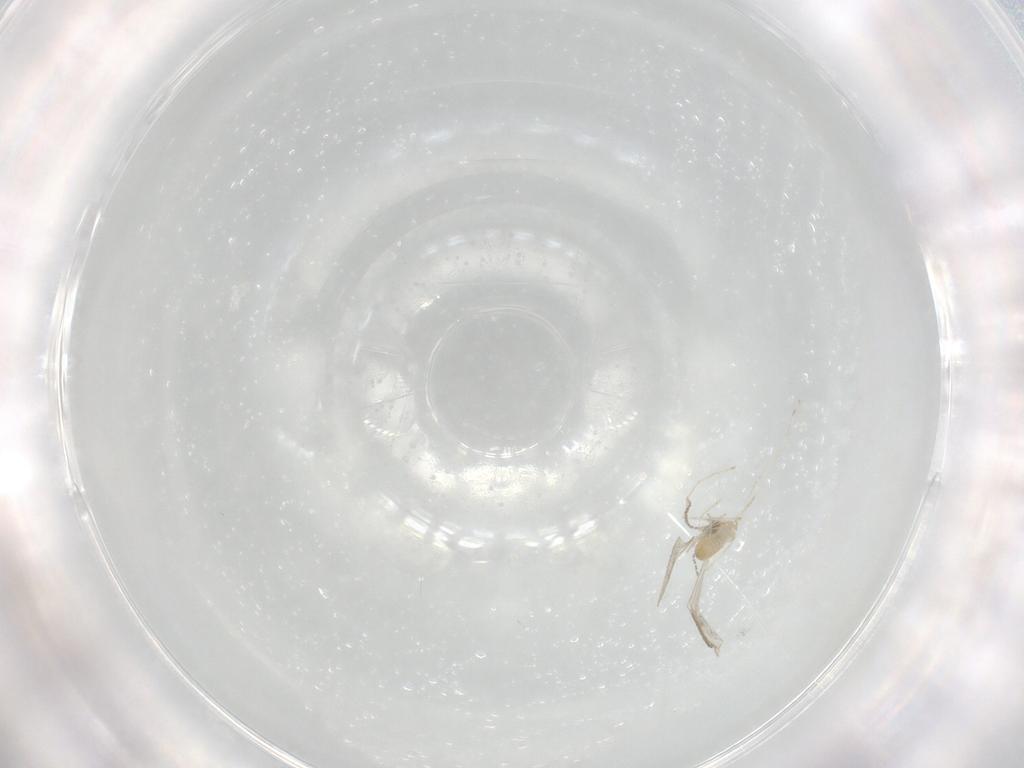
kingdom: Animalia
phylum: Arthropoda
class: Insecta
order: Diptera
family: Cecidomyiidae
